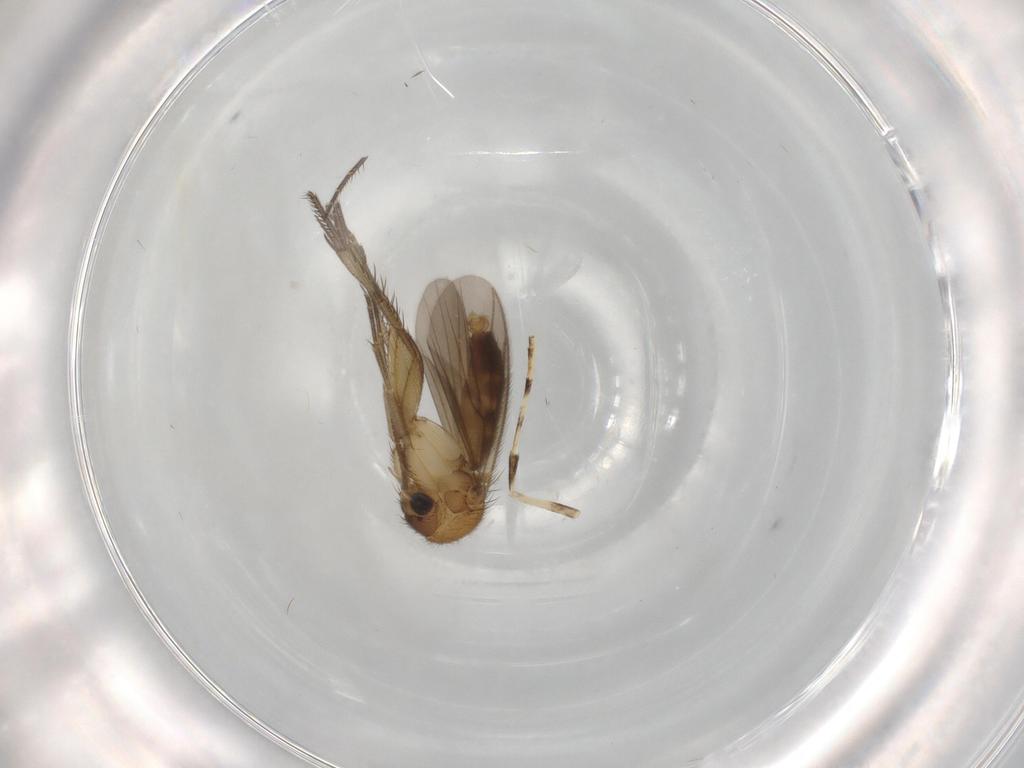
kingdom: Animalia
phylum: Arthropoda
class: Insecta
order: Diptera
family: Mycetophilidae
